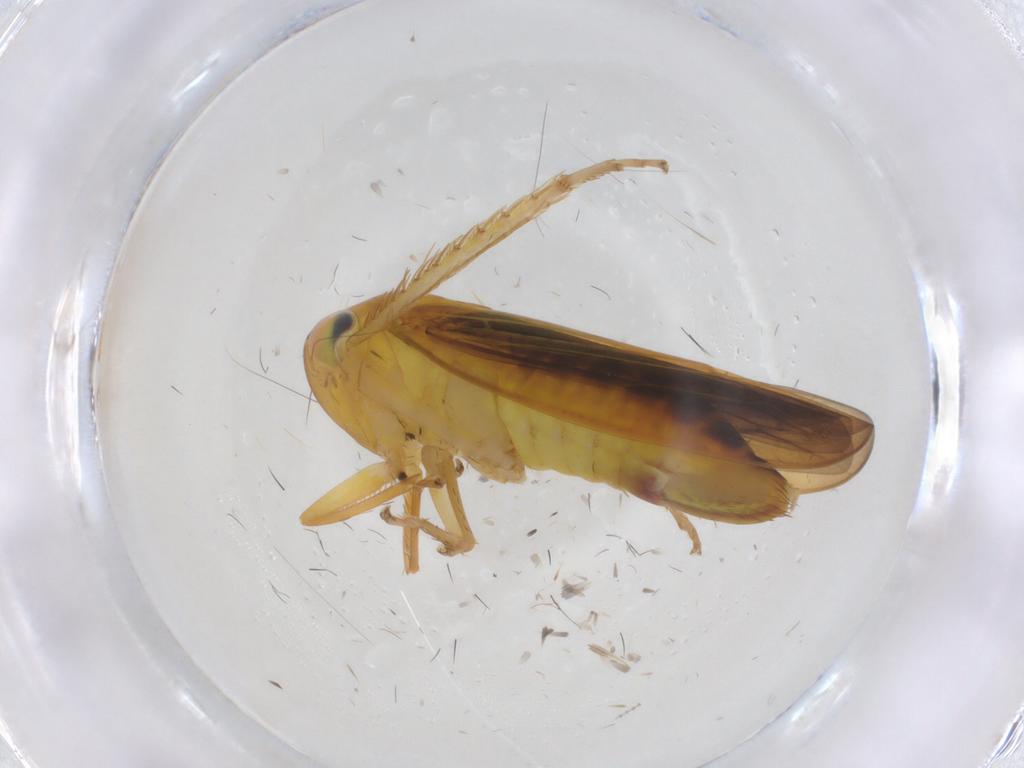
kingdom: Animalia
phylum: Arthropoda
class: Insecta
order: Hemiptera
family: Cicadellidae
